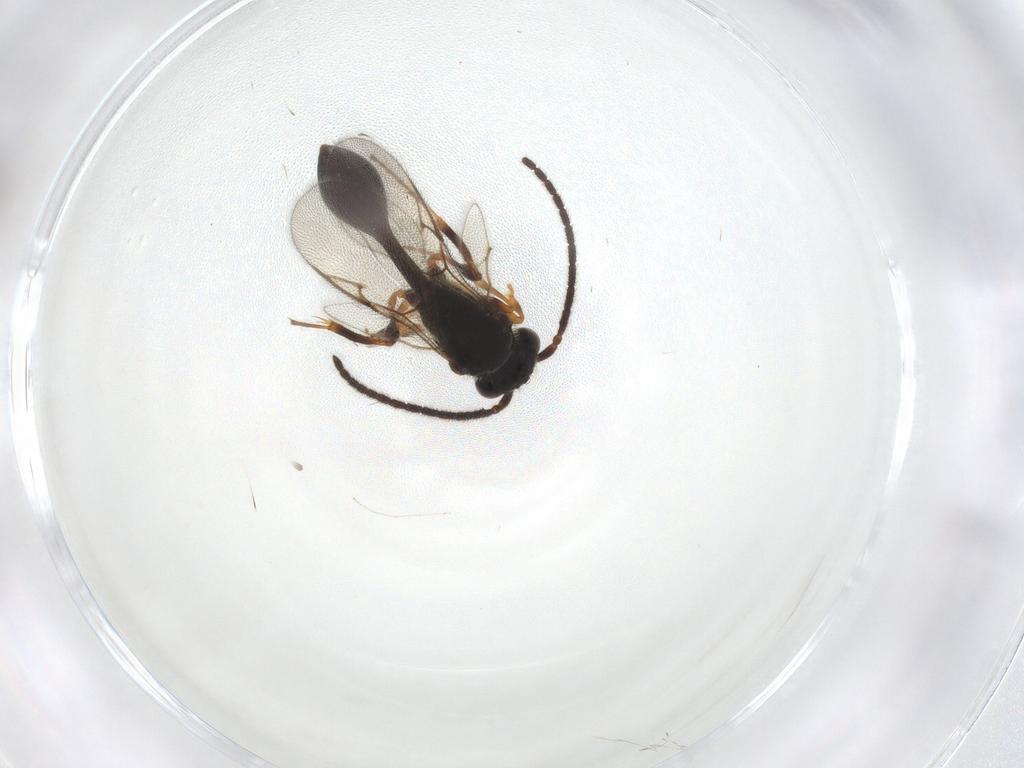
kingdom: Animalia
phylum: Arthropoda
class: Insecta
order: Hymenoptera
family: Diapriidae
